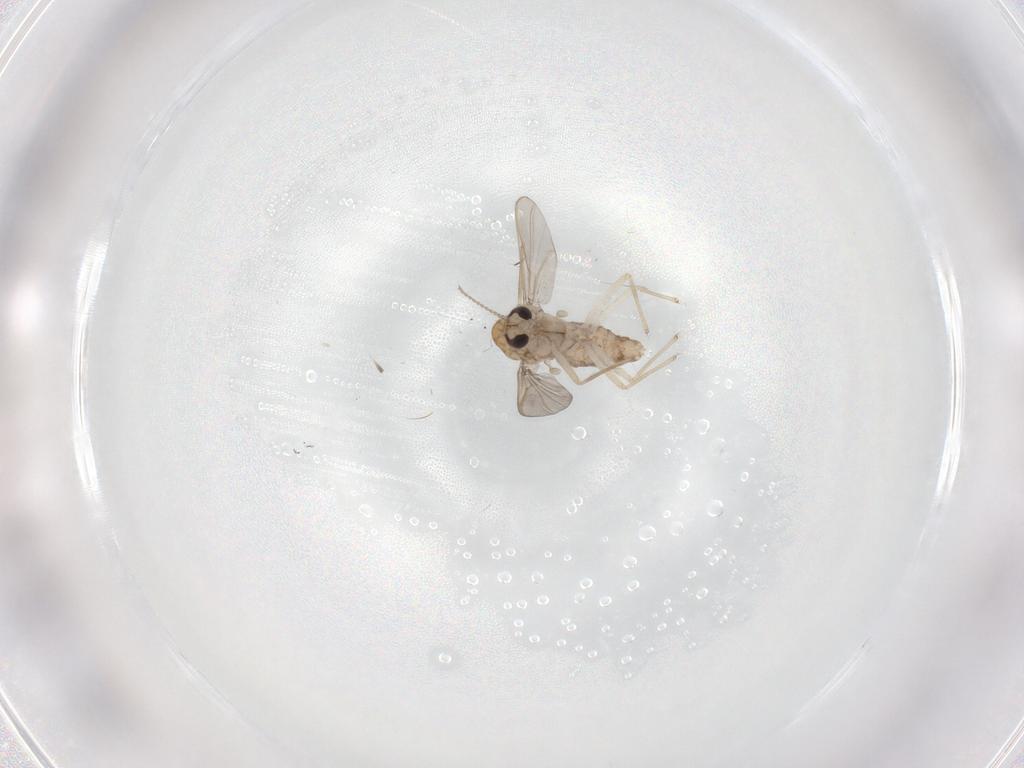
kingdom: Animalia
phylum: Arthropoda
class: Insecta
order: Diptera
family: Chironomidae
